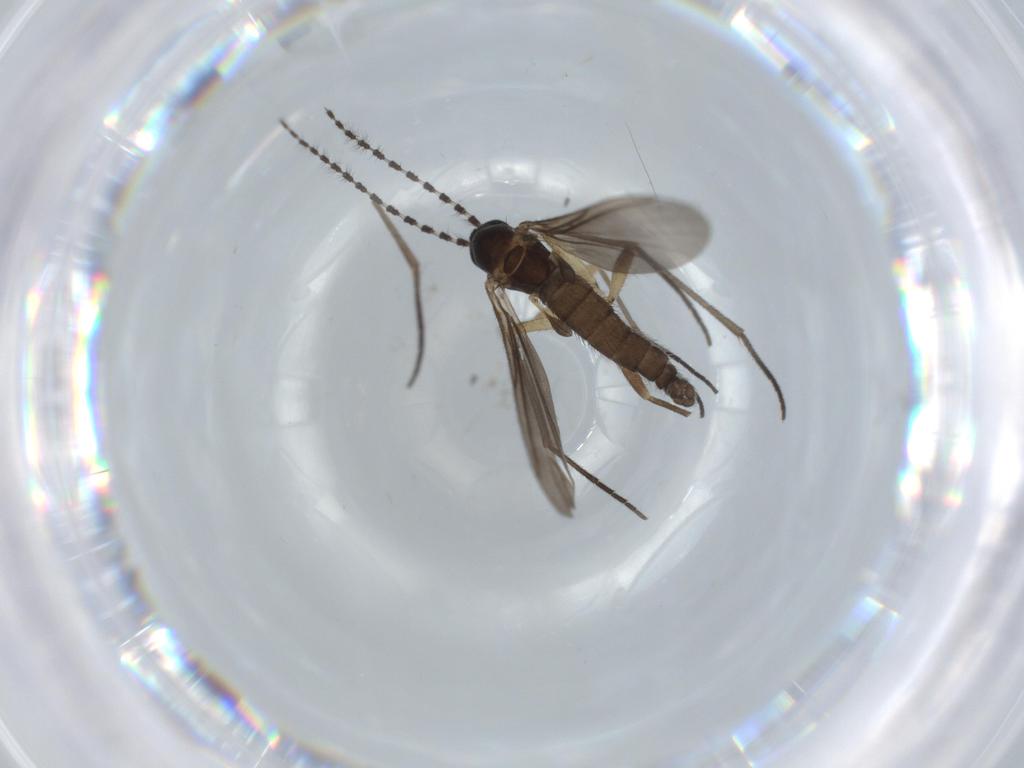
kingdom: Animalia
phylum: Arthropoda
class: Insecta
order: Diptera
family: Sciaridae
